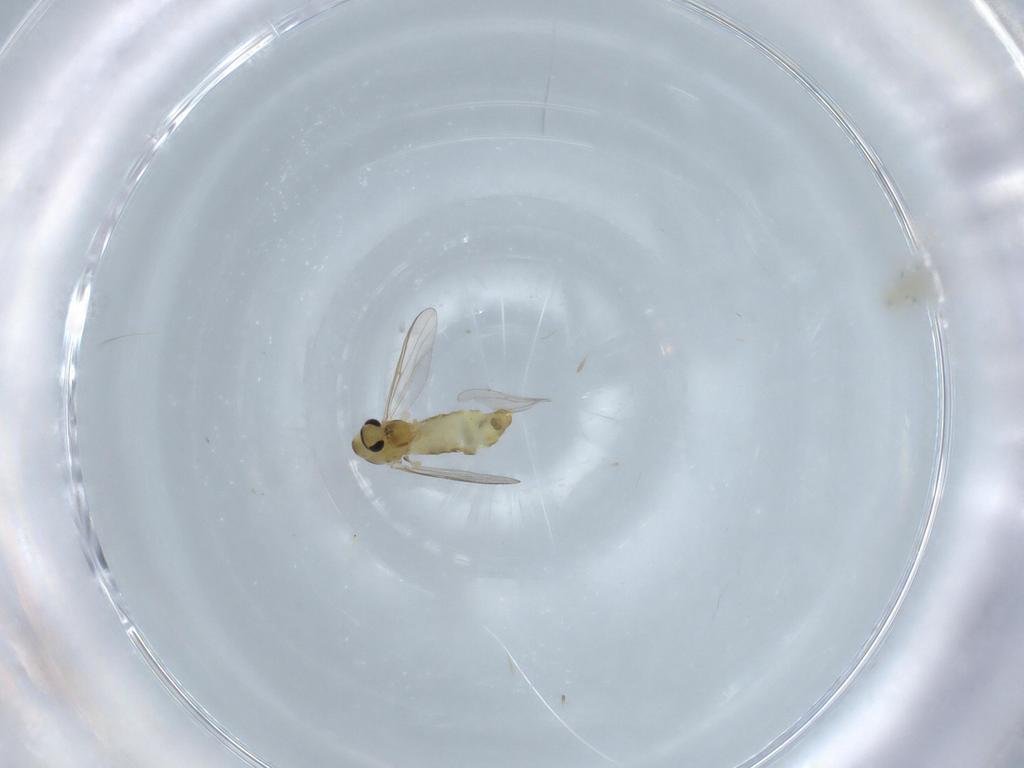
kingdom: Animalia
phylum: Arthropoda
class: Insecta
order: Diptera
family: Chironomidae
